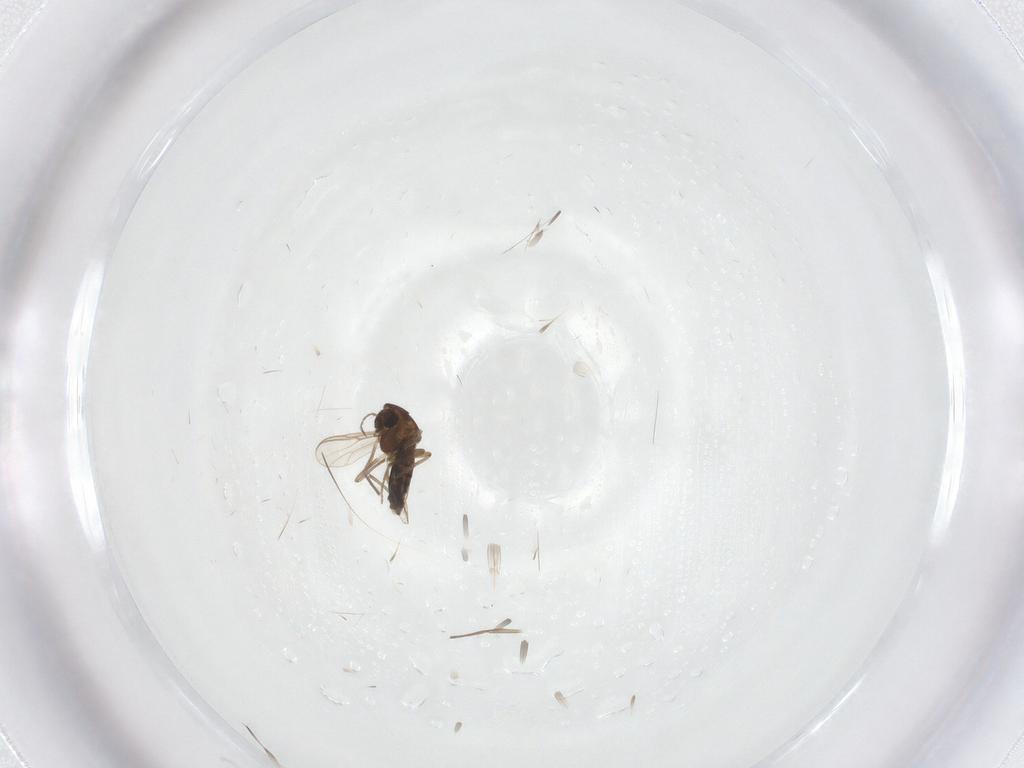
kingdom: Animalia
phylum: Arthropoda
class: Insecta
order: Diptera
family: Chironomidae
